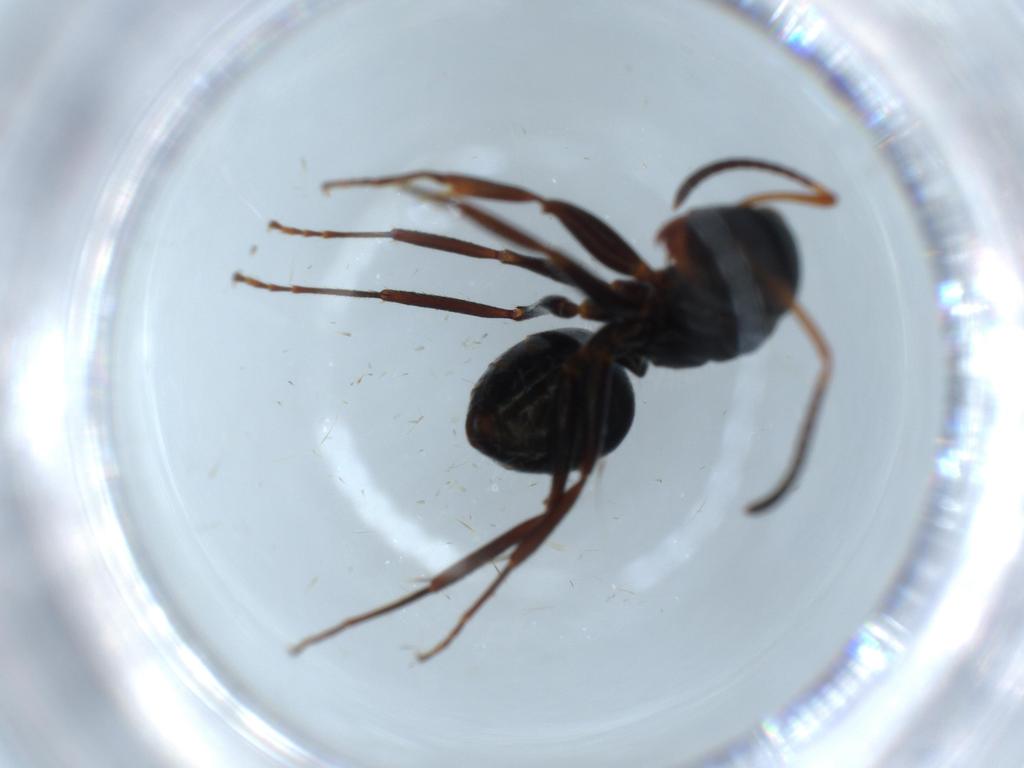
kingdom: Animalia
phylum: Arthropoda
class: Insecta
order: Hymenoptera
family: Formicidae
